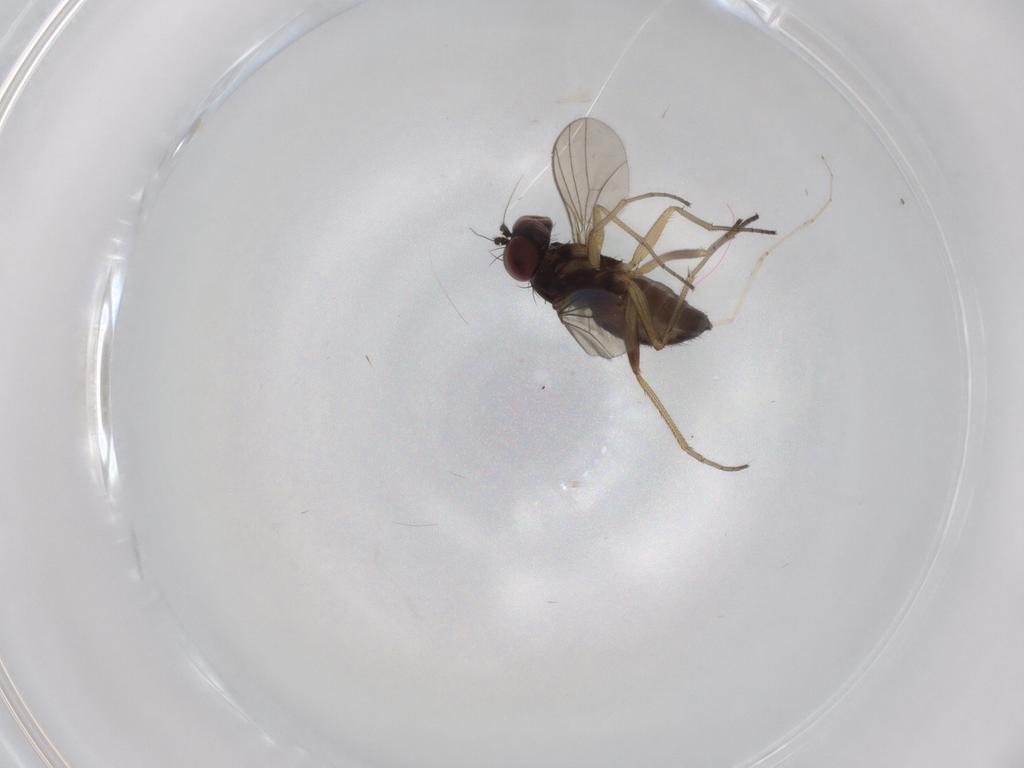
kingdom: Animalia
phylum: Arthropoda
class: Insecta
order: Diptera
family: Dolichopodidae
